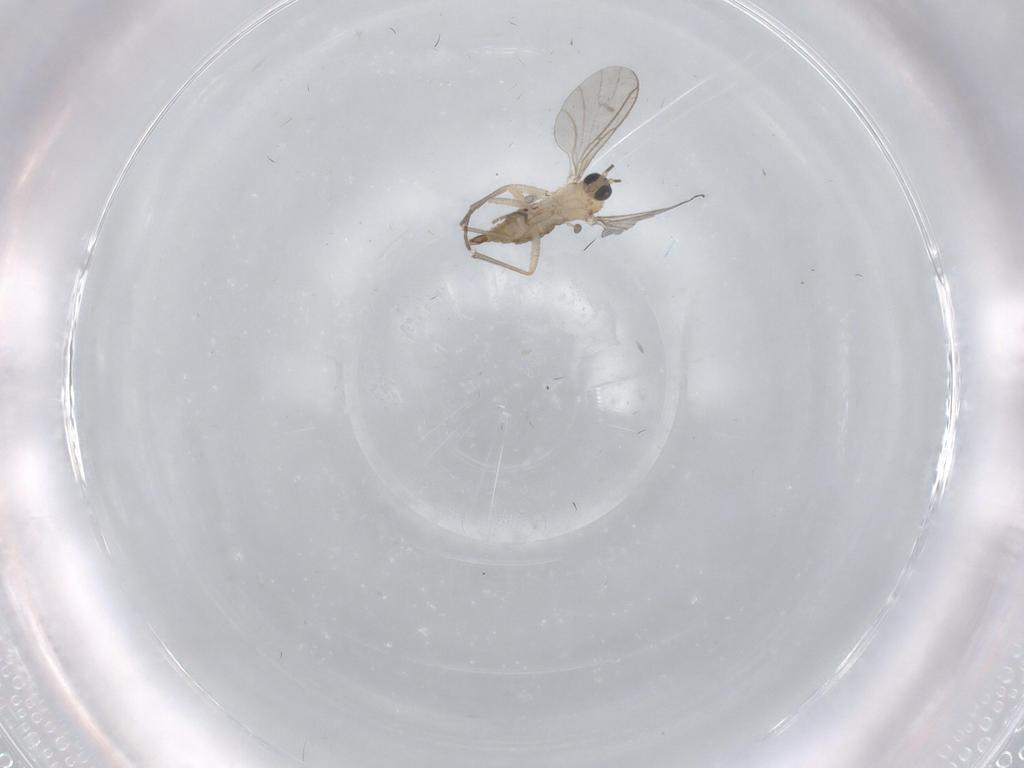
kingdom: Animalia
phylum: Arthropoda
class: Insecta
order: Diptera
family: Sciaridae
